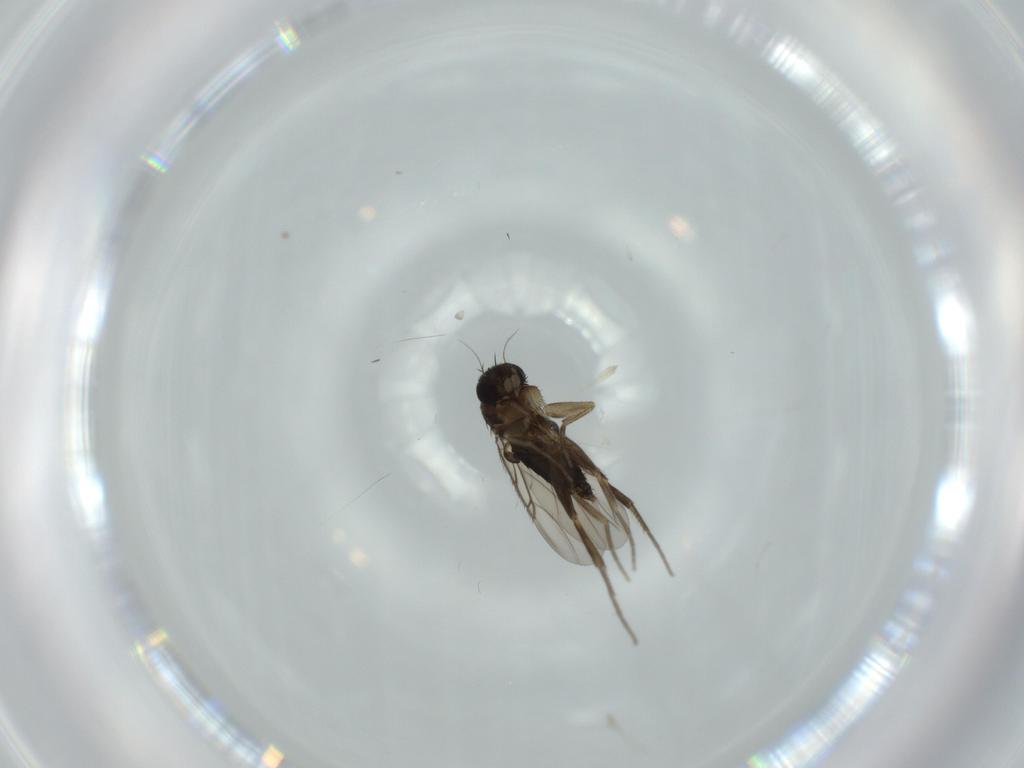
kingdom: Animalia
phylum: Arthropoda
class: Insecta
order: Diptera
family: Phoridae
